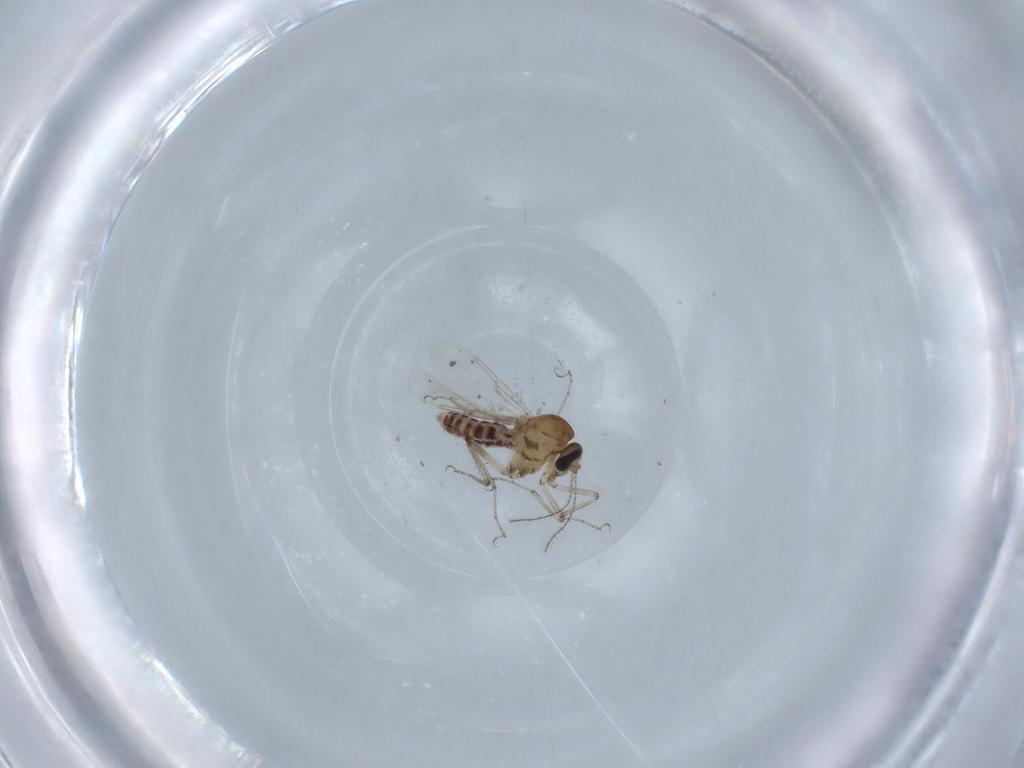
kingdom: Animalia
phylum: Arthropoda
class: Insecta
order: Diptera
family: Ceratopogonidae
